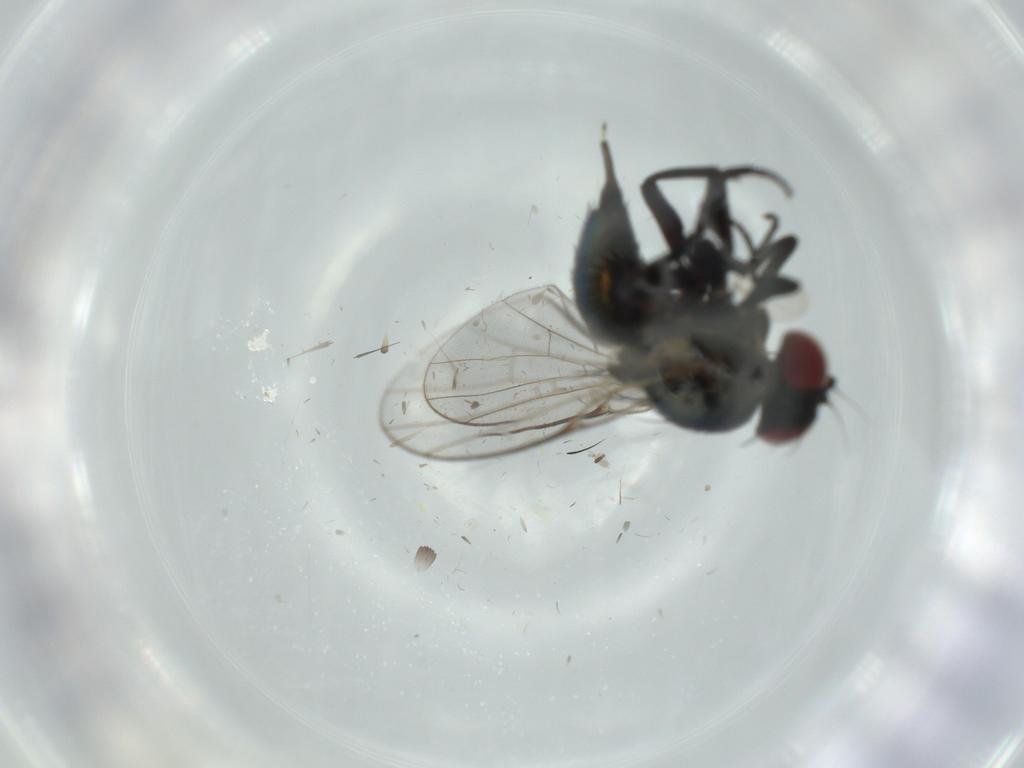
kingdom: Animalia
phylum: Arthropoda
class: Insecta
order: Diptera
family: Agromyzidae
